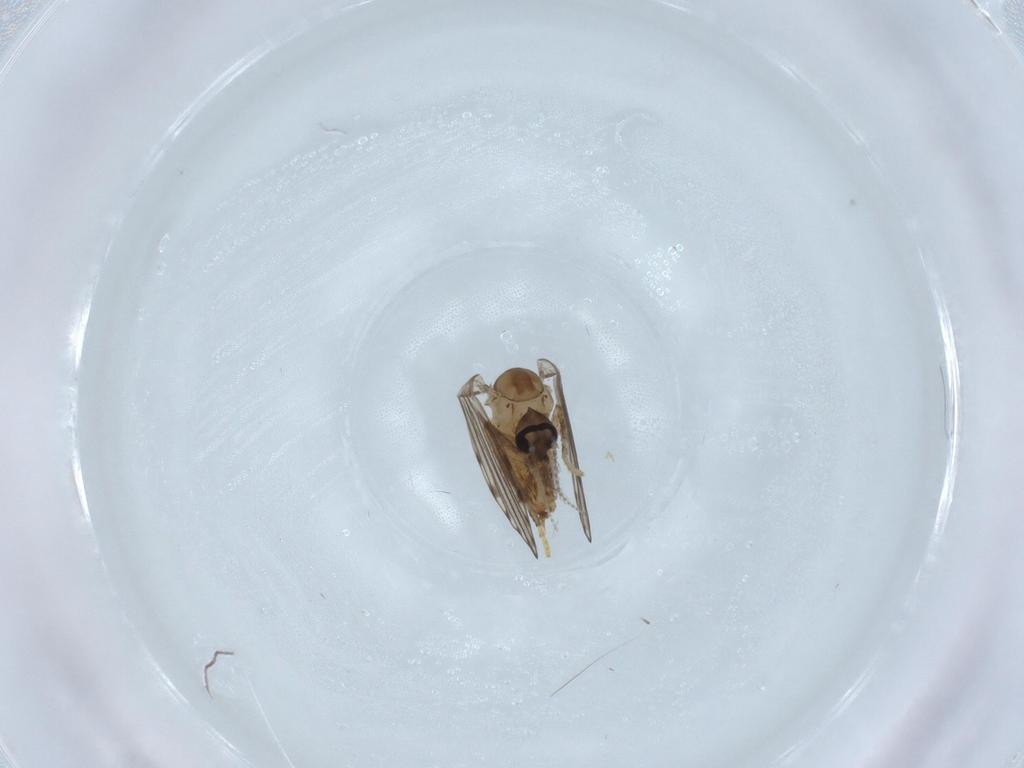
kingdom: Animalia
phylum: Arthropoda
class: Insecta
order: Diptera
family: Psychodidae
